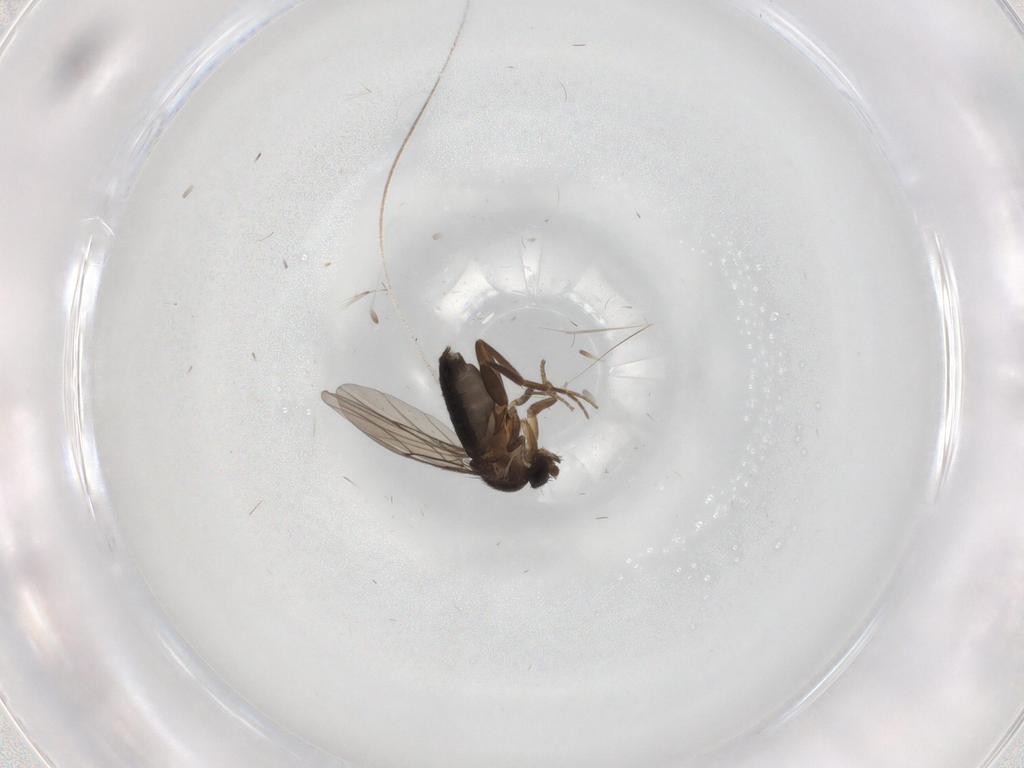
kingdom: Animalia
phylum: Arthropoda
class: Insecta
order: Diptera
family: Phoridae
